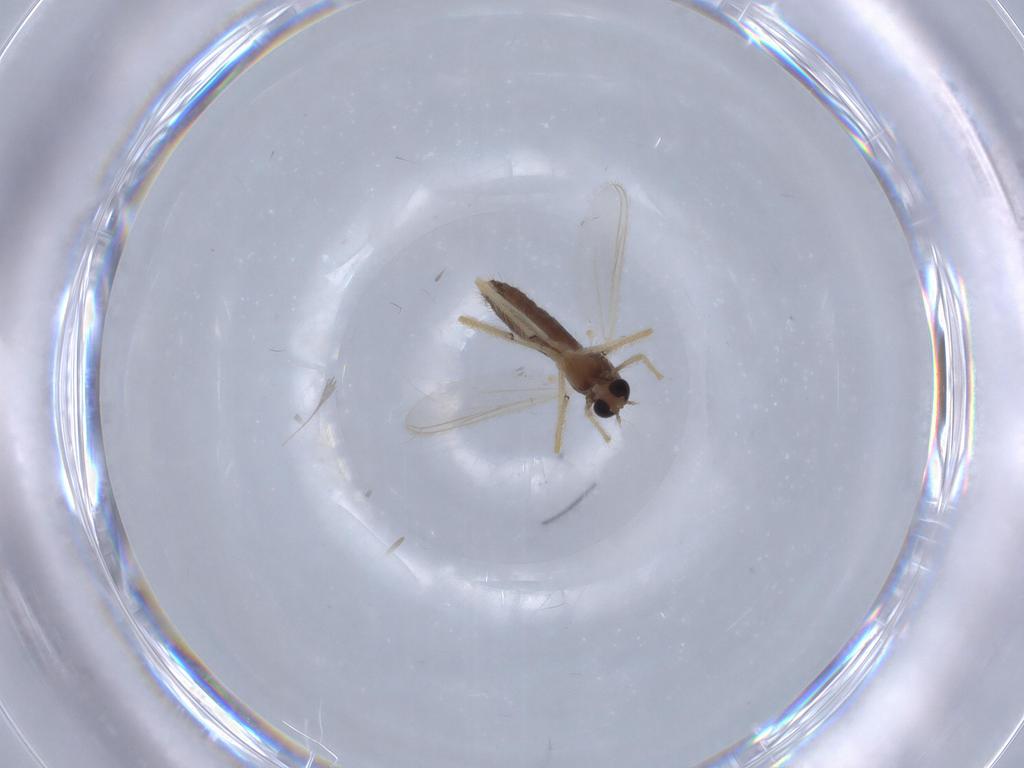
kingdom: Animalia
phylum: Arthropoda
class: Insecta
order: Diptera
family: Chironomidae
